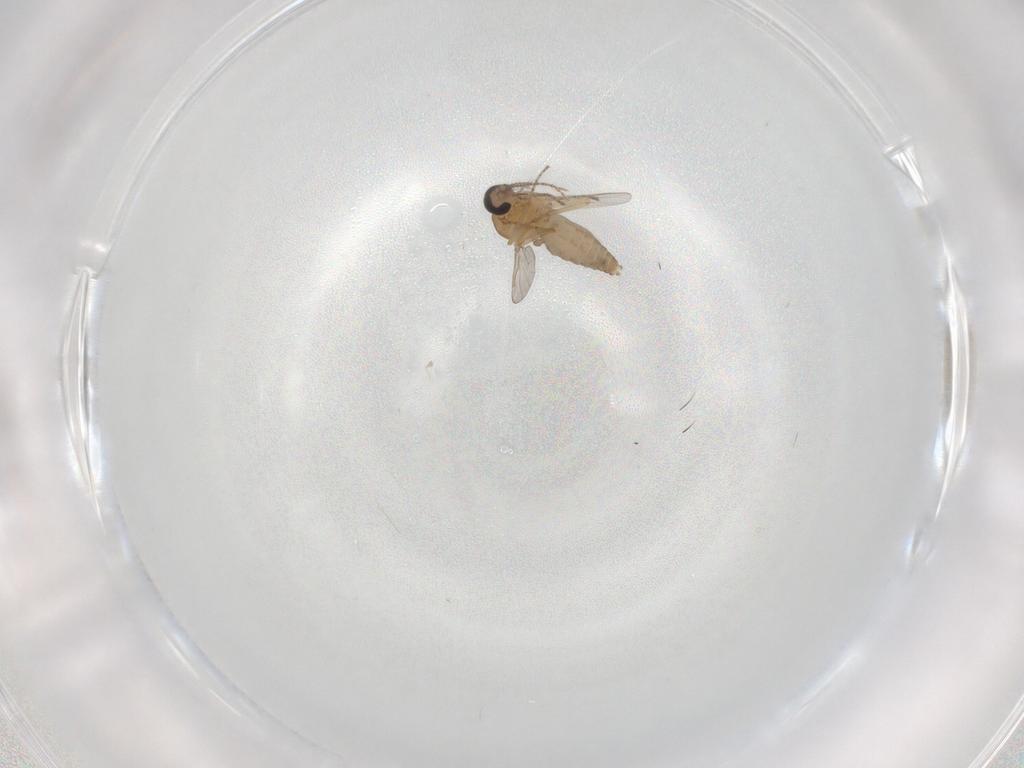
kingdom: Animalia
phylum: Arthropoda
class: Insecta
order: Diptera
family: Ceratopogonidae
